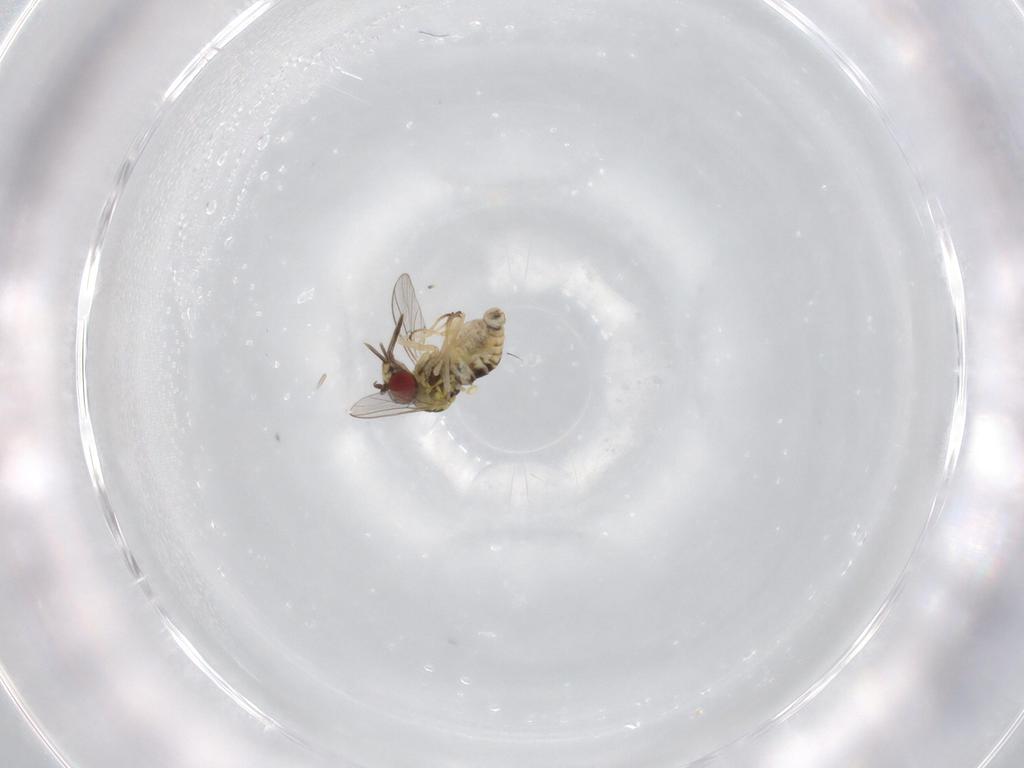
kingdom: Animalia
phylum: Arthropoda
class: Insecta
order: Diptera
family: Bombyliidae
